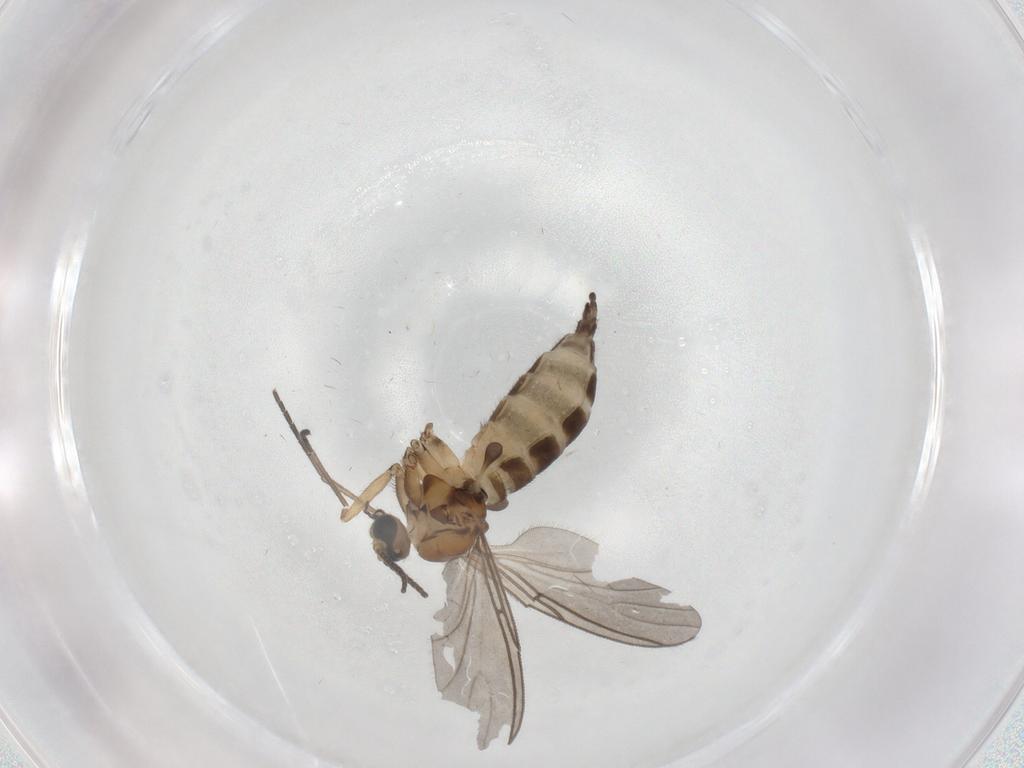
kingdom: Animalia
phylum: Arthropoda
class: Insecta
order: Diptera
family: Sciaridae
